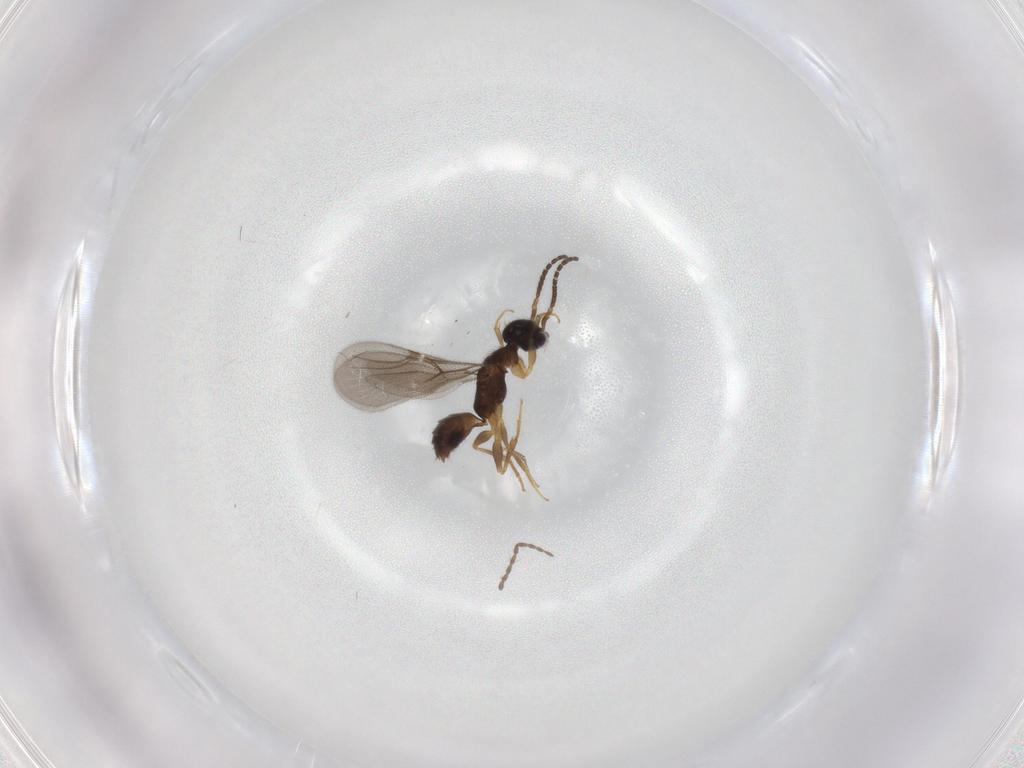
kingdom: Animalia
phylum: Arthropoda
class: Insecta
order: Hymenoptera
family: Bethylidae
